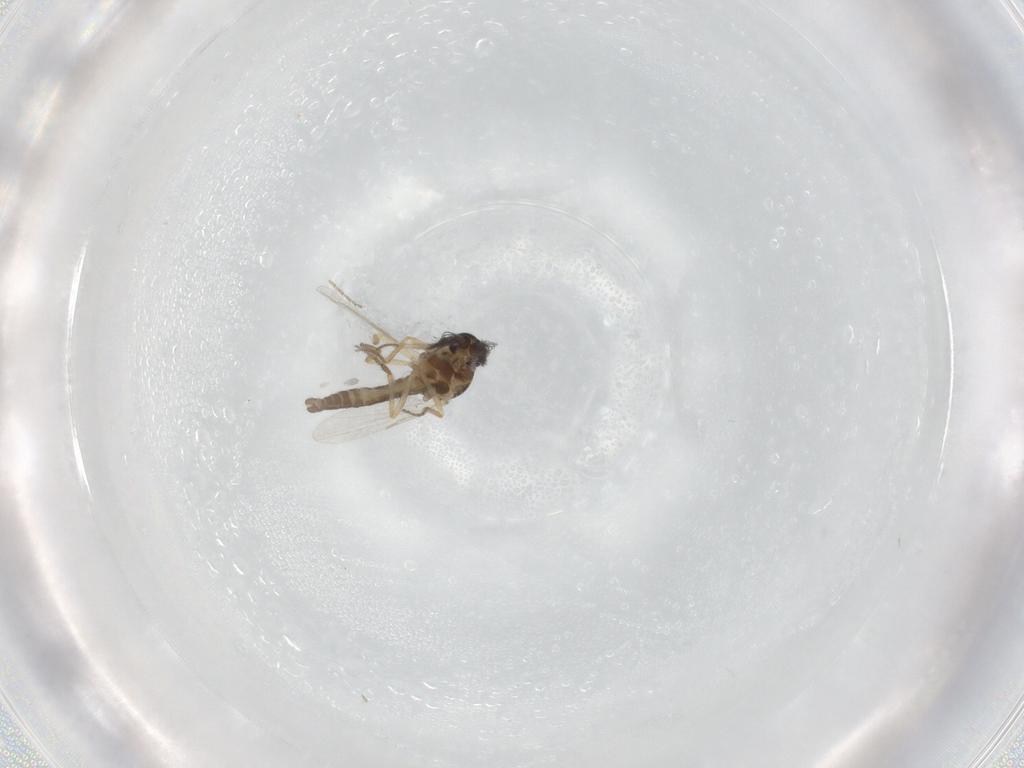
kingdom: Animalia
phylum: Arthropoda
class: Insecta
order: Diptera
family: Ceratopogonidae
